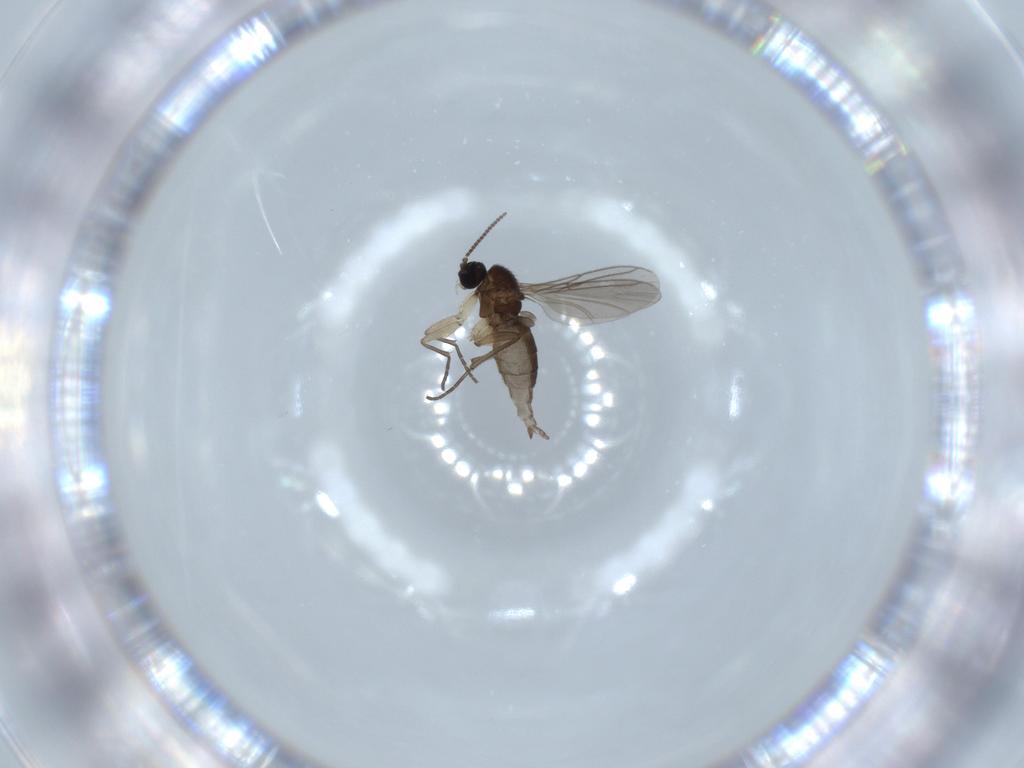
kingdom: Animalia
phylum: Arthropoda
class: Insecta
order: Diptera
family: Sciaridae
